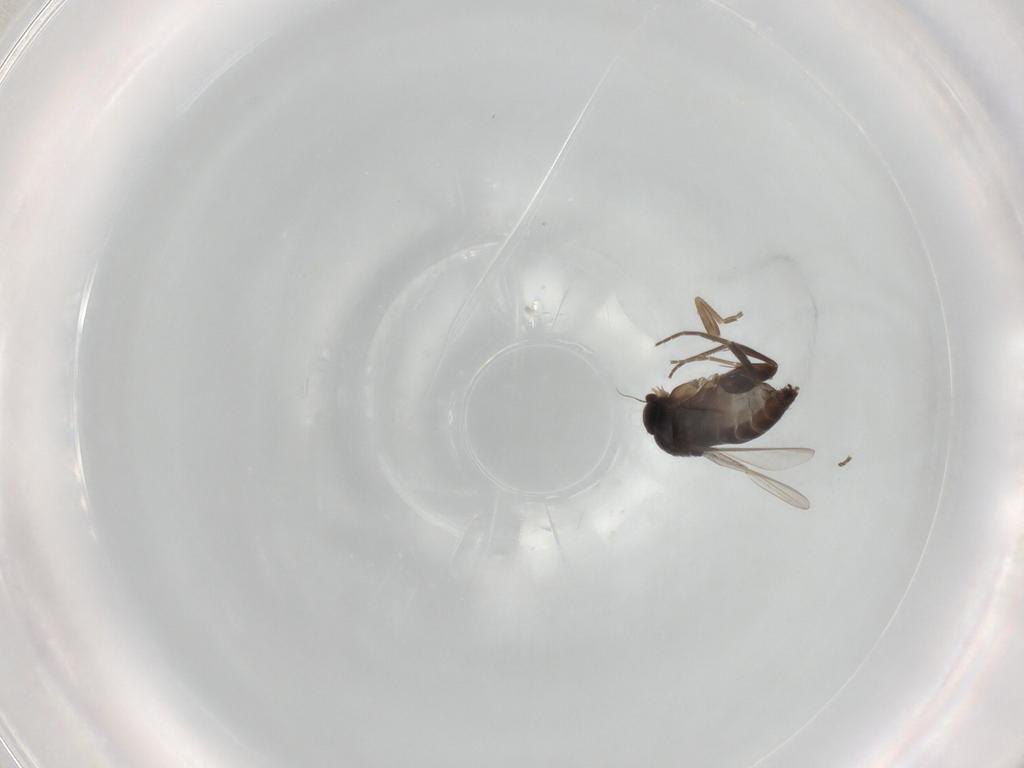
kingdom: Animalia
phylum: Arthropoda
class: Insecta
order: Diptera
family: Phoridae
